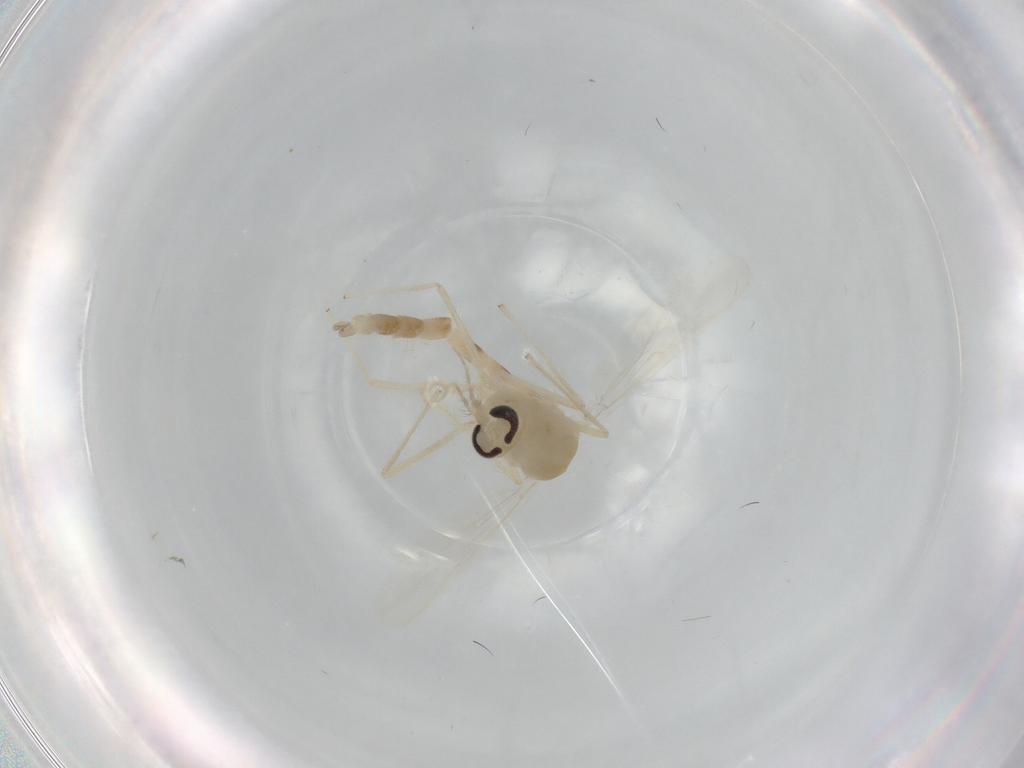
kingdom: Animalia
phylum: Arthropoda
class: Insecta
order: Diptera
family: Chironomidae
